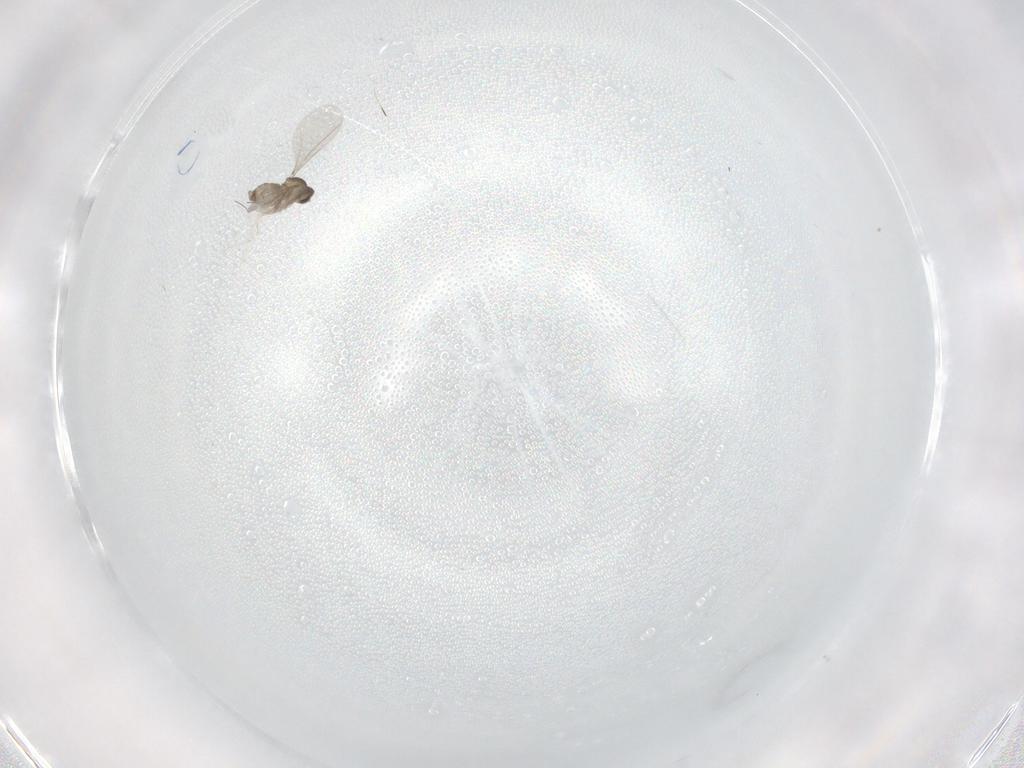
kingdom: Animalia
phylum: Arthropoda
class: Insecta
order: Diptera
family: Cecidomyiidae
